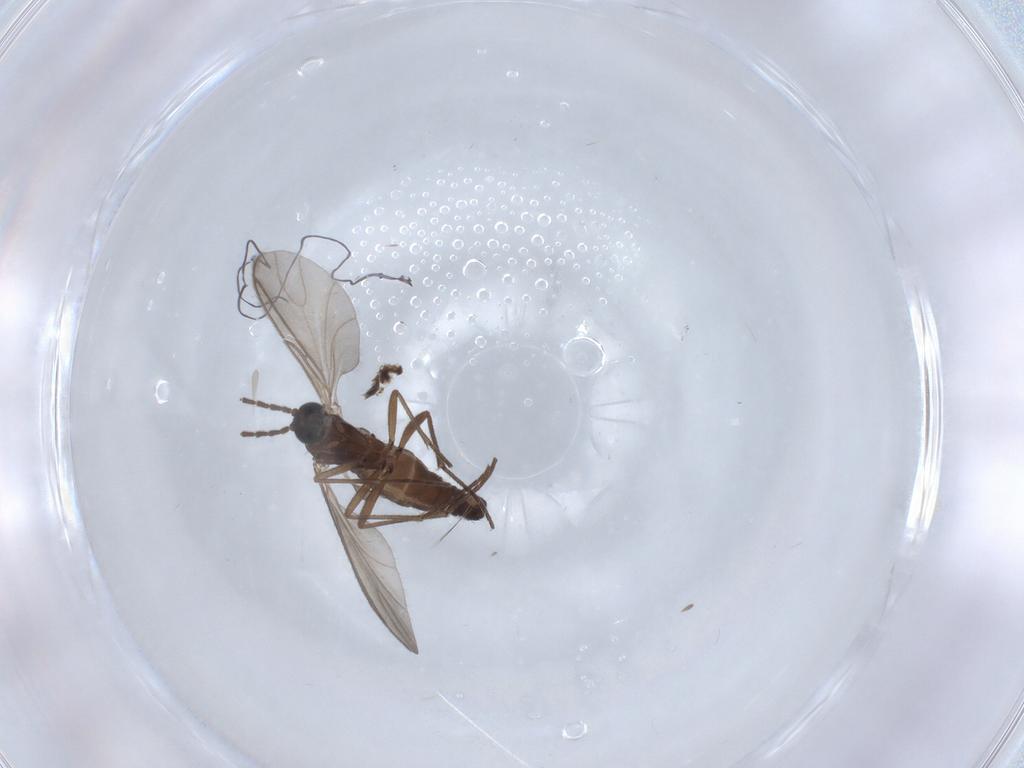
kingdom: Animalia
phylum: Arthropoda
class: Insecta
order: Diptera
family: Sciaridae
